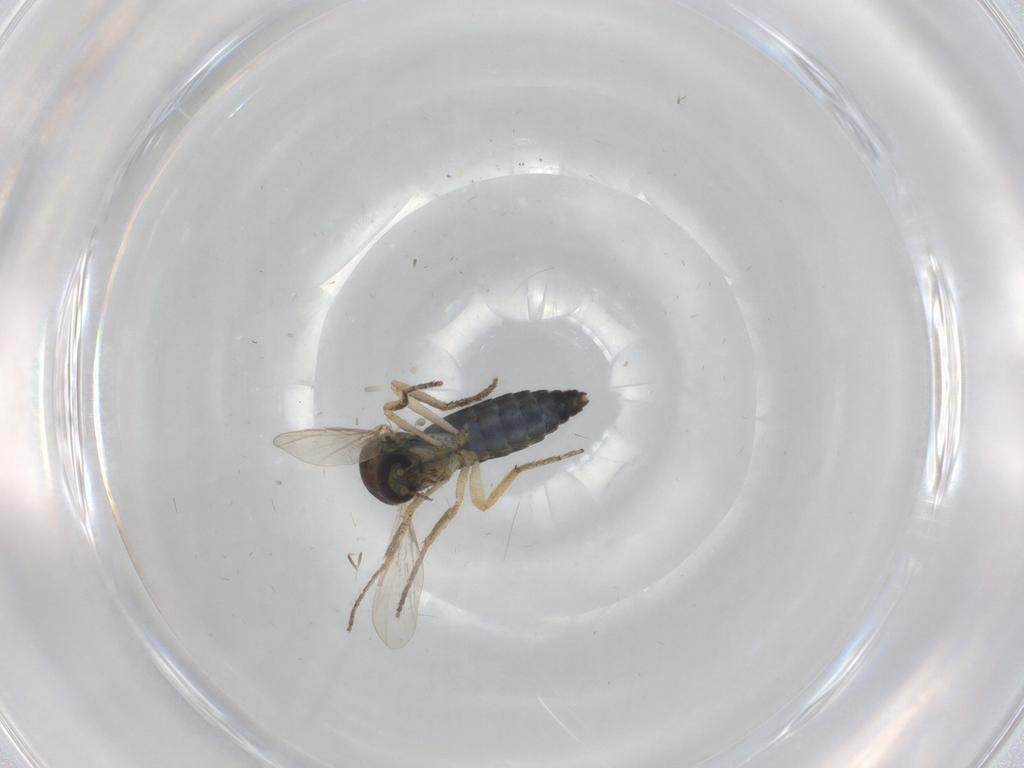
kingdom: Animalia
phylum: Arthropoda
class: Insecta
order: Diptera
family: Ceratopogonidae
